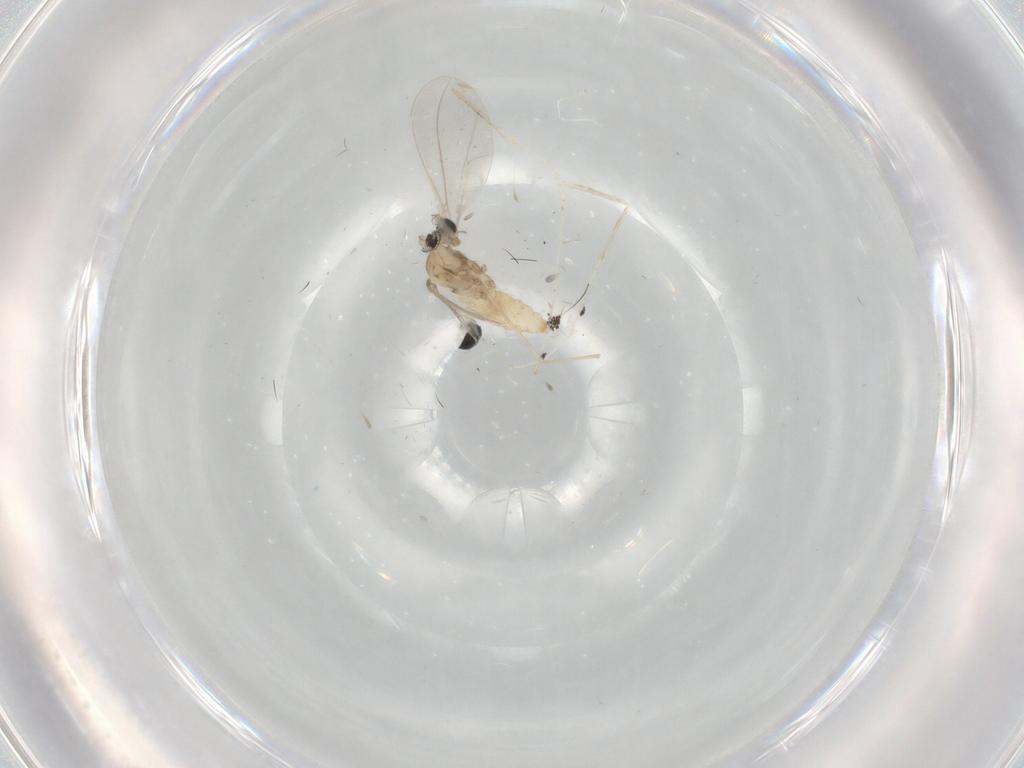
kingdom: Animalia
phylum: Arthropoda
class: Insecta
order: Diptera
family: Cecidomyiidae
